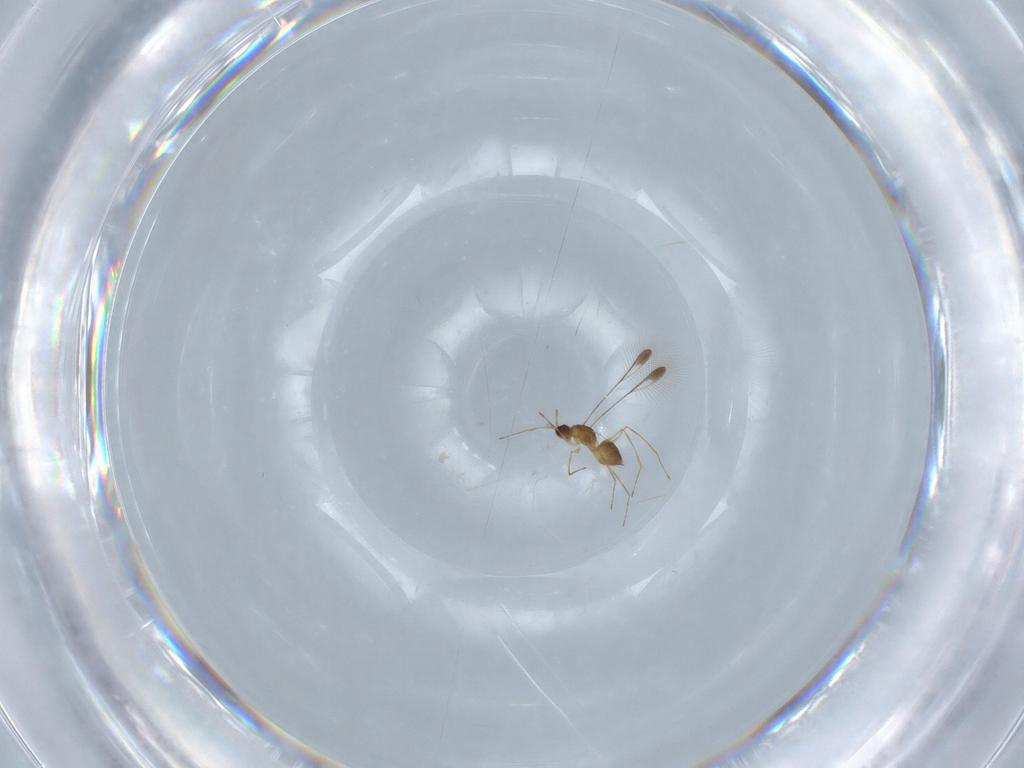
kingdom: Animalia
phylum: Arthropoda
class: Insecta
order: Hymenoptera
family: Mymaridae
